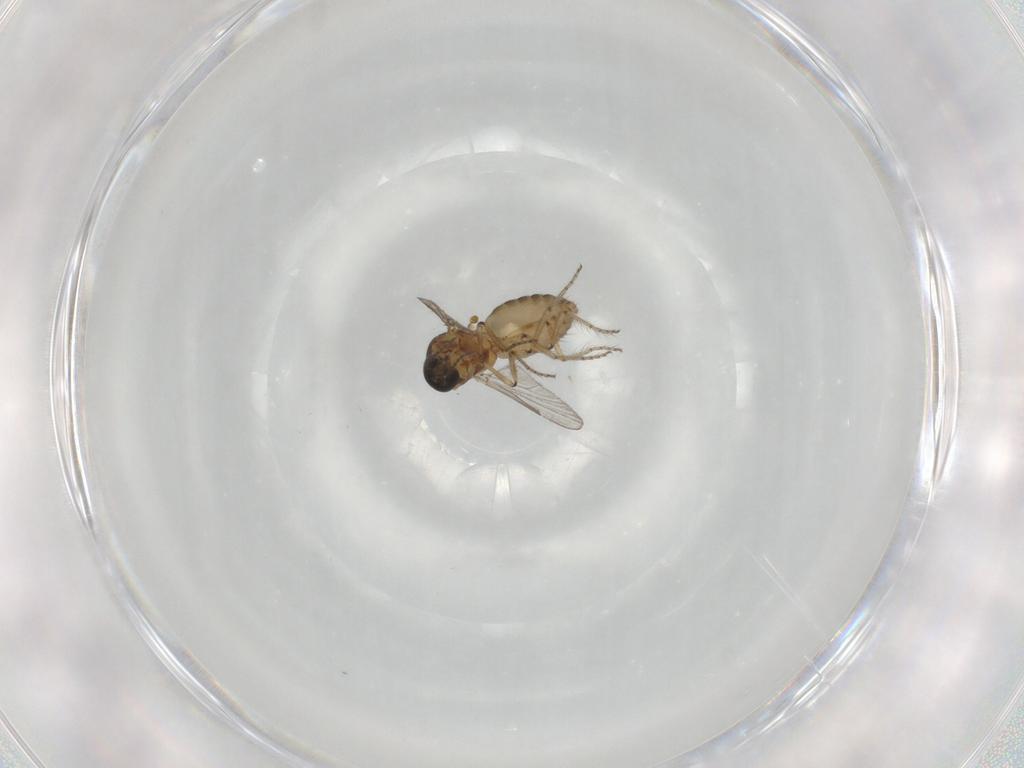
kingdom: Animalia
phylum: Arthropoda
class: Insecta
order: Diptera
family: Ceratopogonidae
